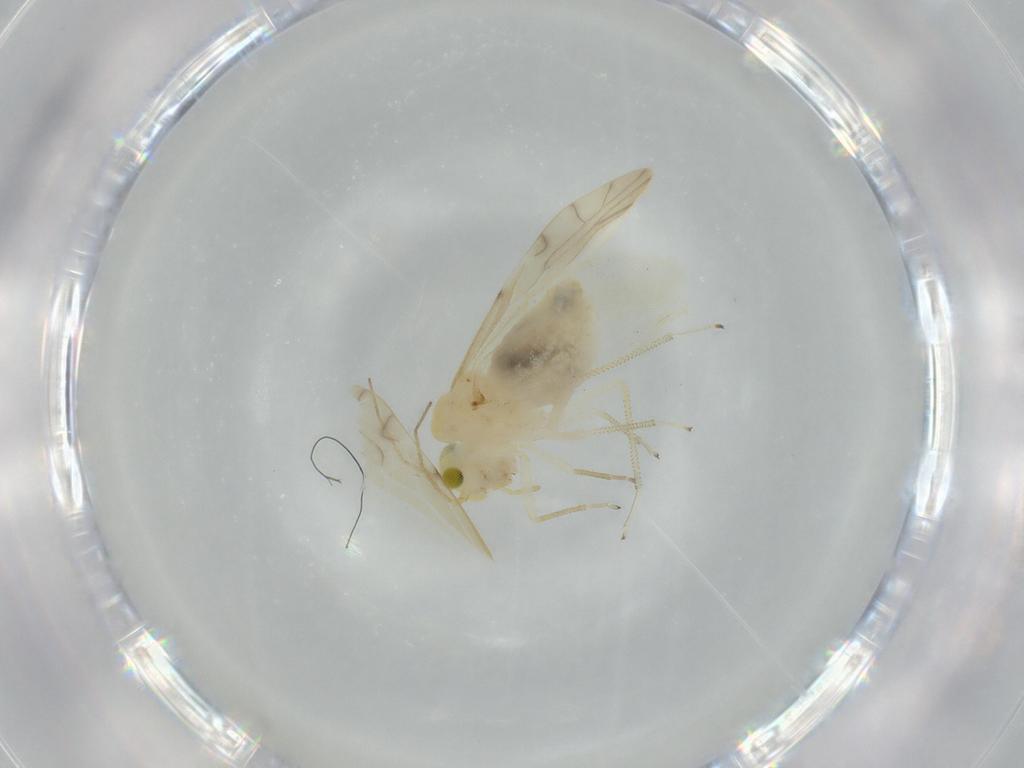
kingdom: Animalia
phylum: Arthropoda
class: Insecta
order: Psocodea
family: Caeciliusidae
